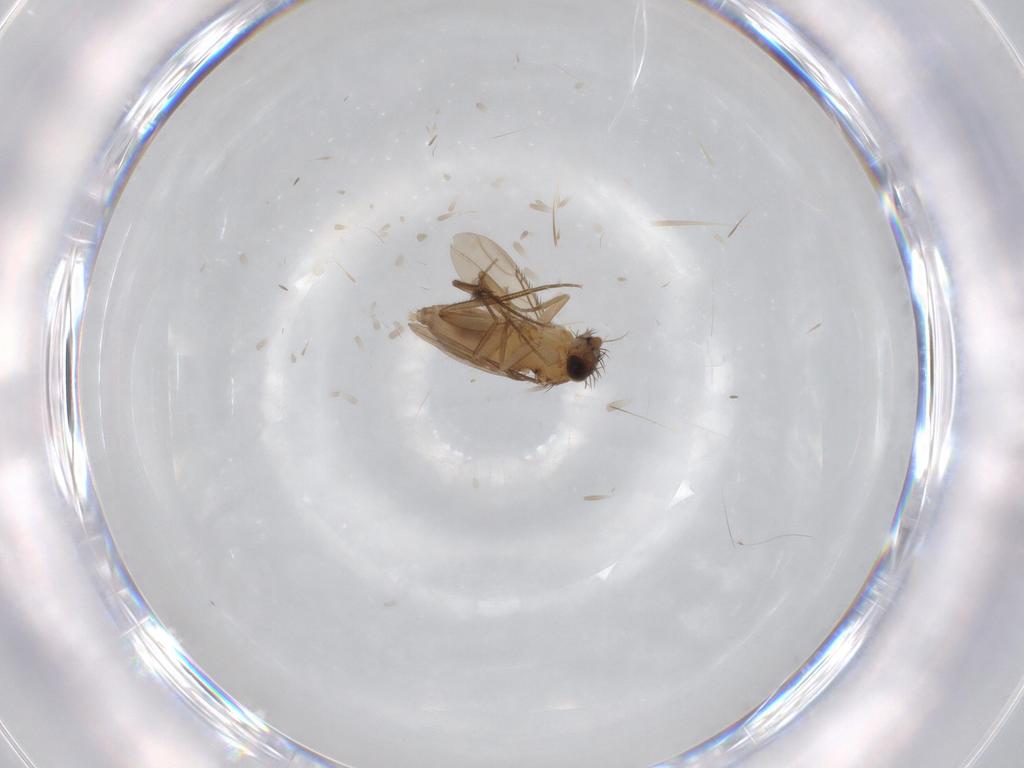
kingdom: Animalia
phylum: Arthropoda
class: Insecta
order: Diptera
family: Phoridae
